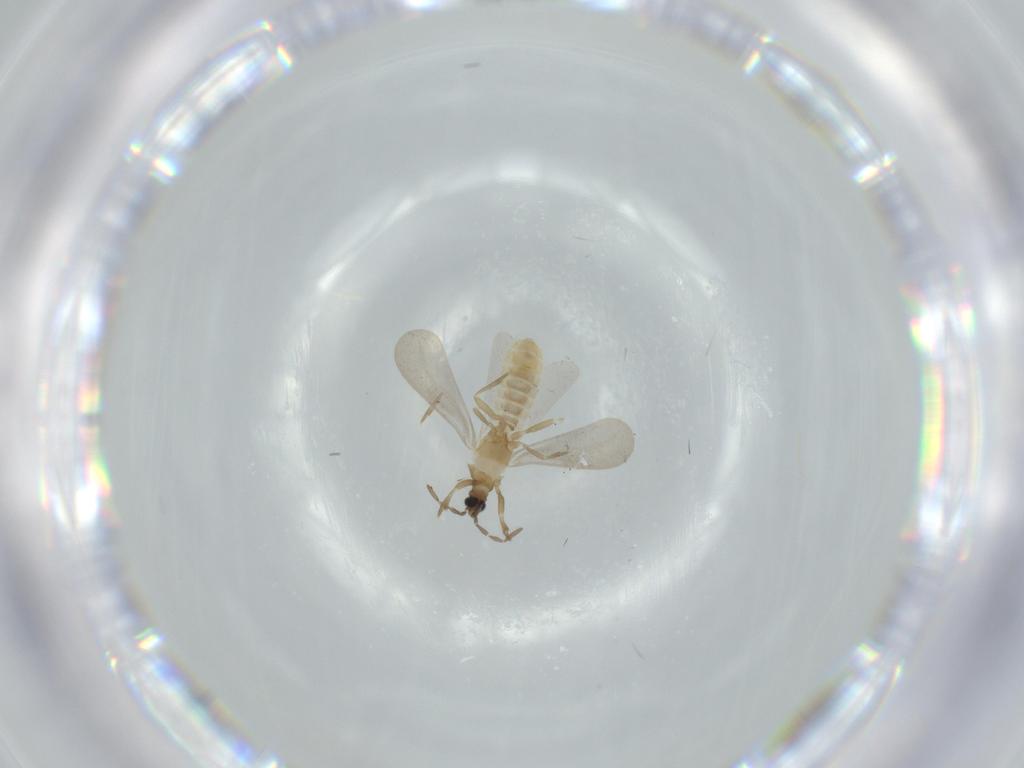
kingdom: Animalia
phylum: Arthropoda
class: Insecta
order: Diptera
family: Cecidomyiidae
